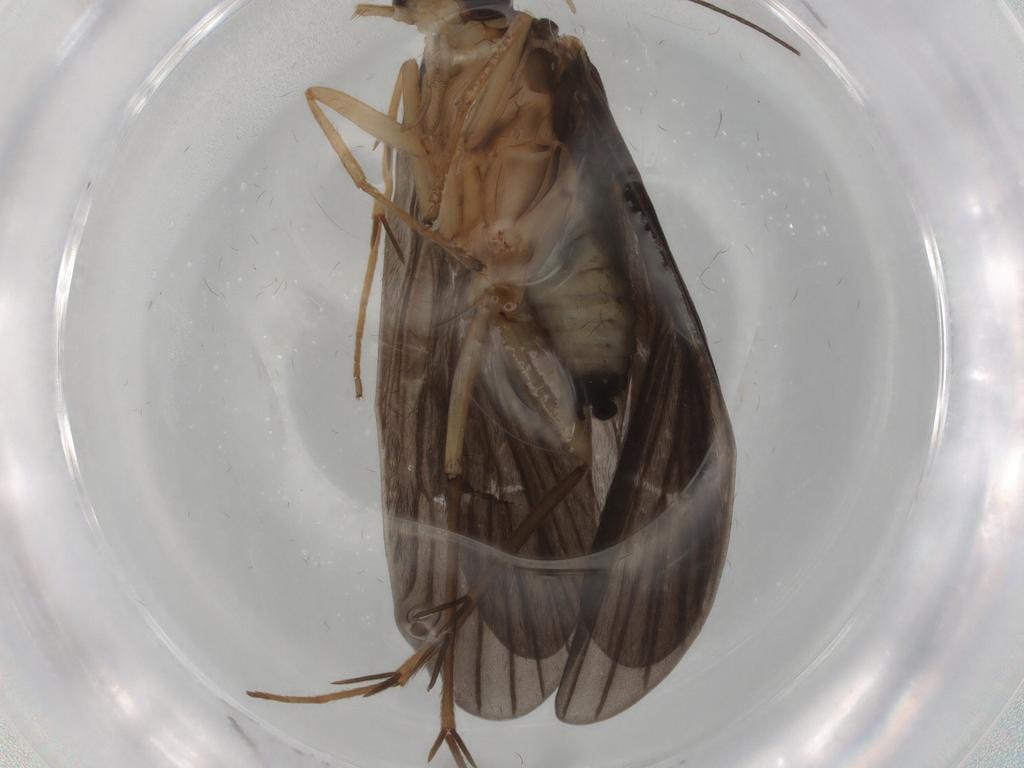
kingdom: Animalia
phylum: Arthropoda
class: Insecta
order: Trichoptera
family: Philopotamidae
